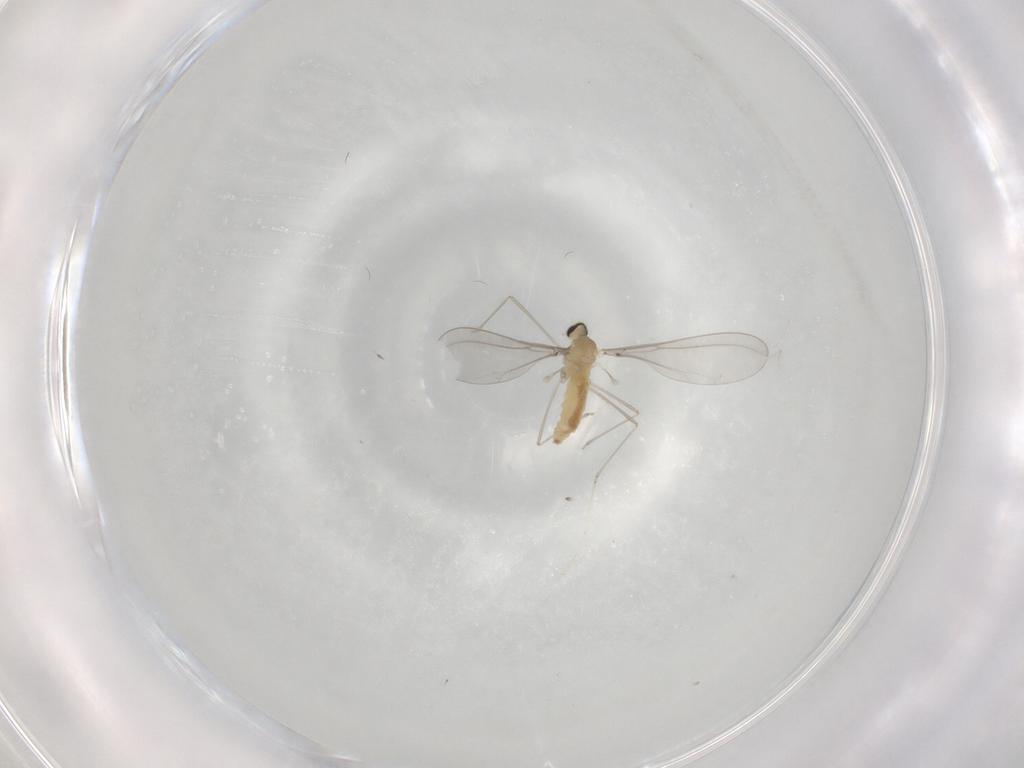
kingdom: Animalia
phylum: Arthropoda
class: Insecta
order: Diptera
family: Cecidomyiidae
